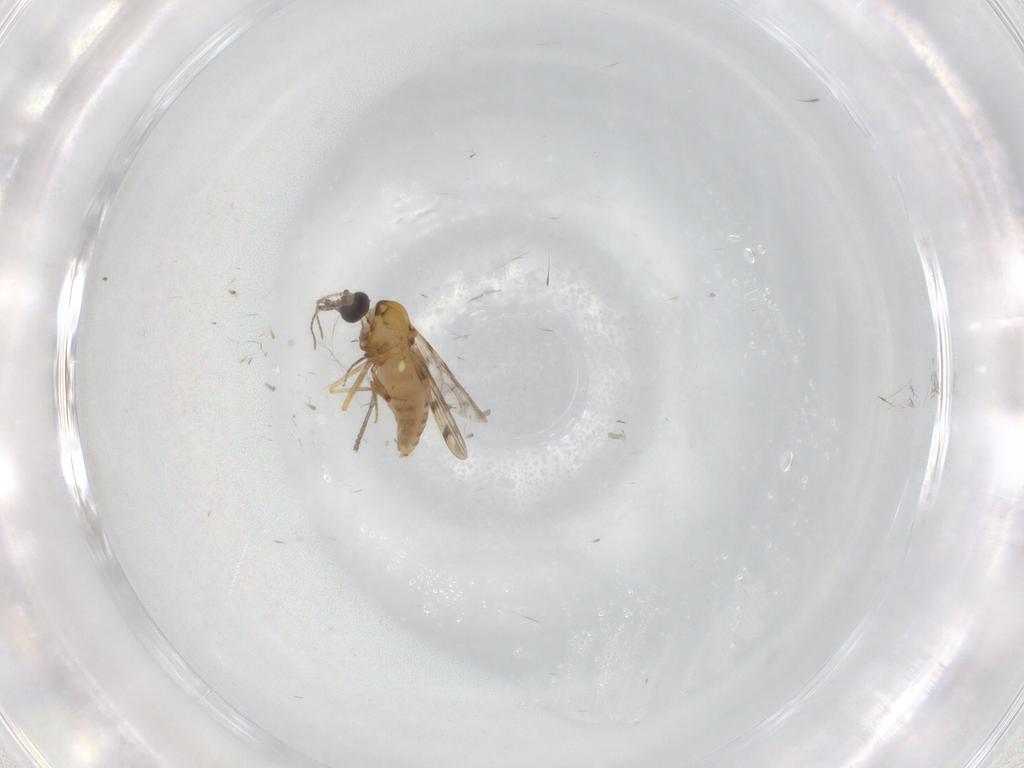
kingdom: Animalia
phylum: Arthropoda
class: Insecta
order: Diptera
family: Psychodidae
